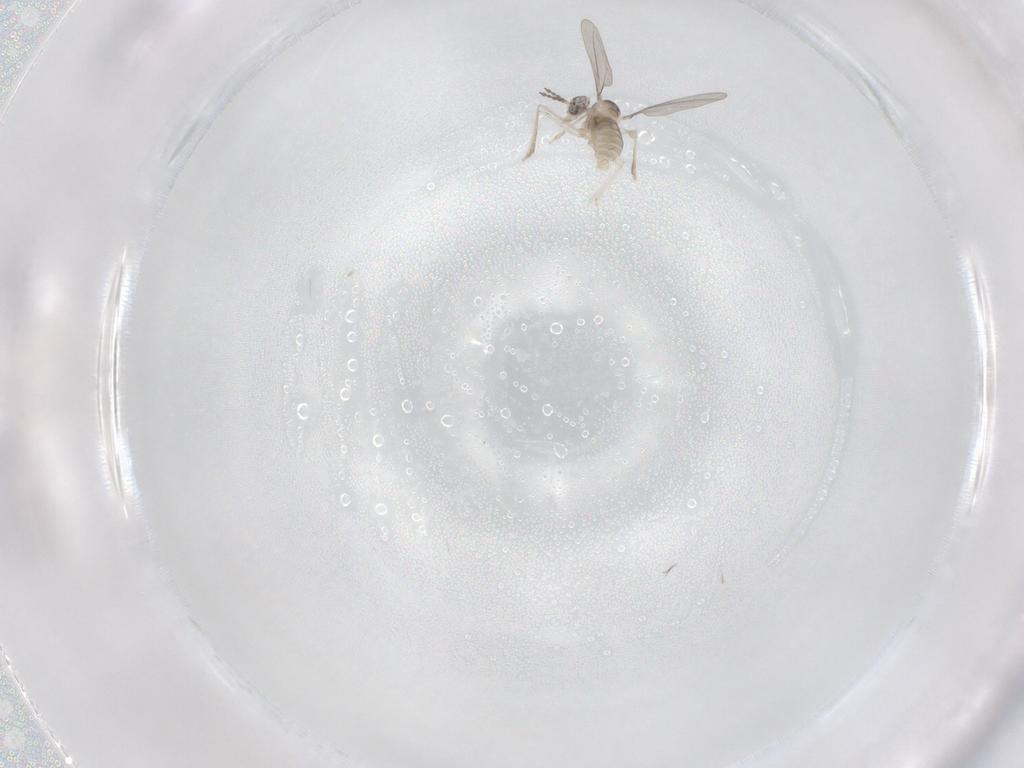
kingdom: Animalia
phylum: Arthropoda
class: Insecta
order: Diptera
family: Cecidomyiidae
